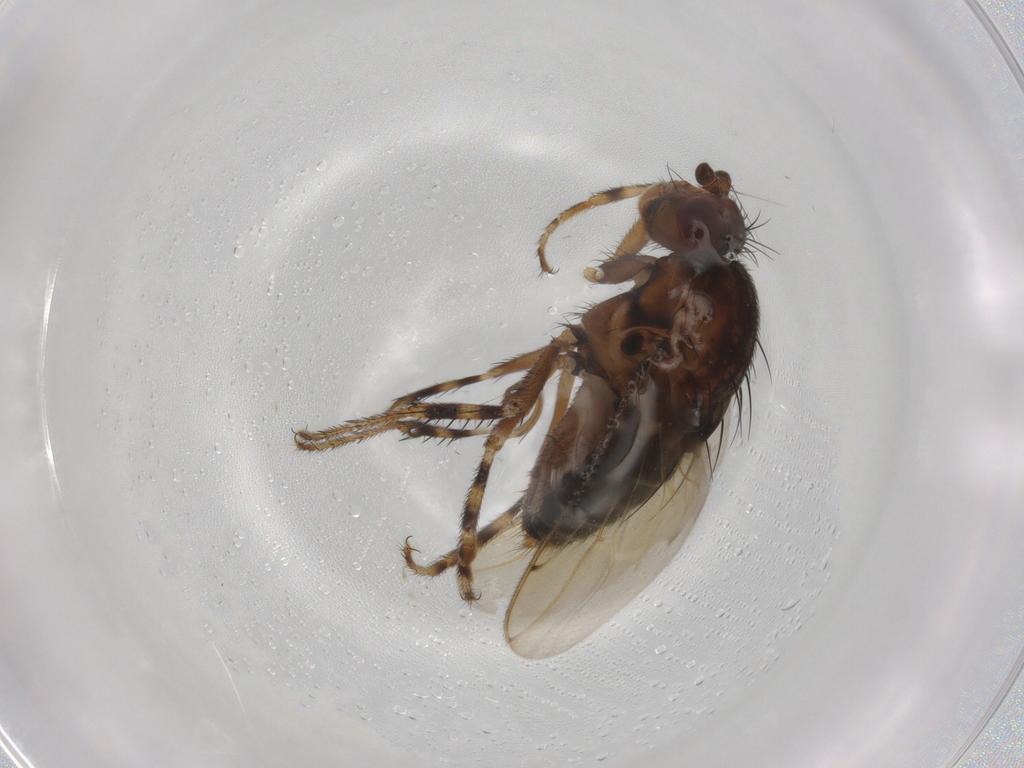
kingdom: Animalia
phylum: Arthropoda
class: Insecta
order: Diptera
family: Sphaeroceridae
